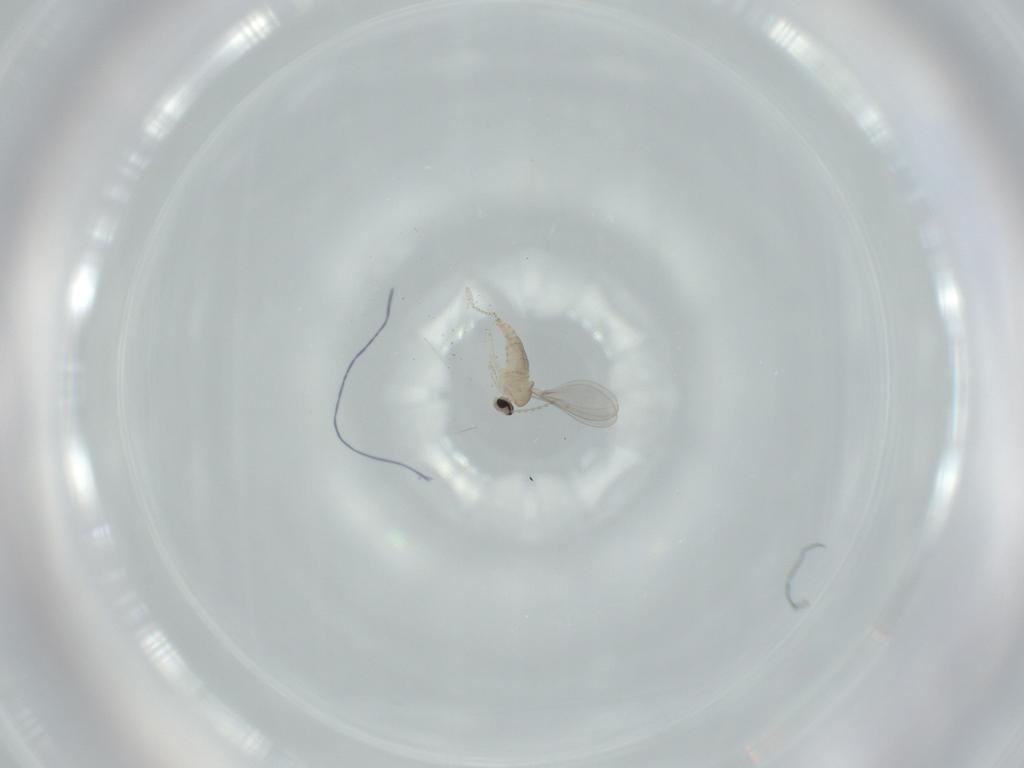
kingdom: Animalia
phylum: Arthropoda
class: Insecta
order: Diptera
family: Cecidomyiidae
